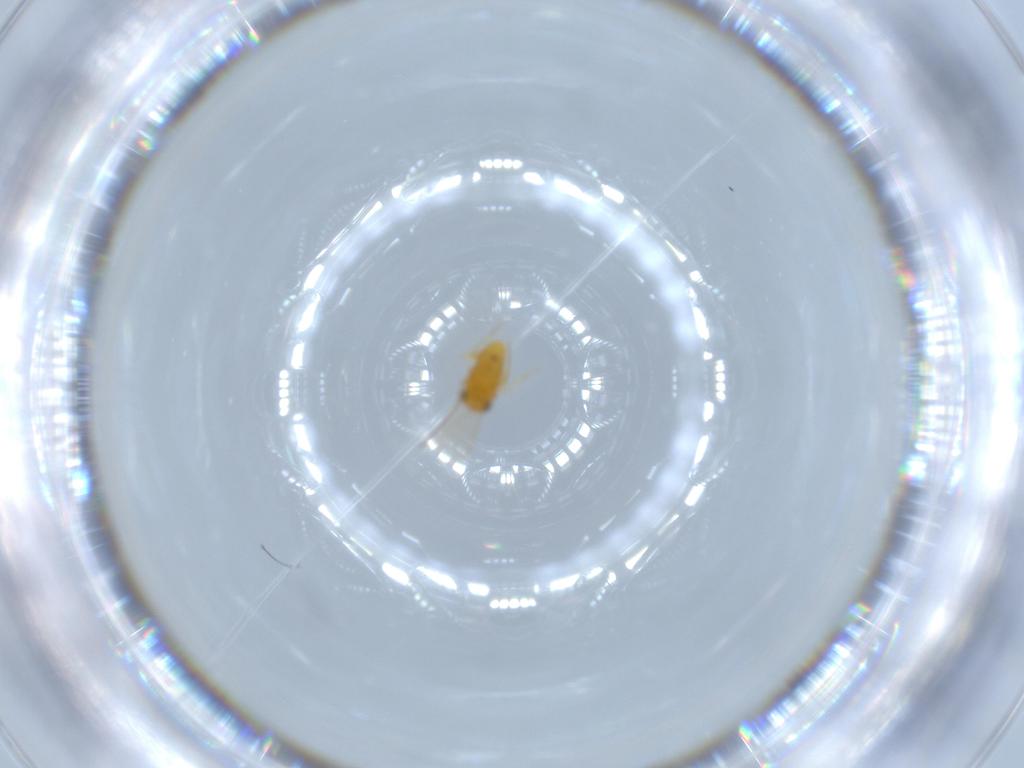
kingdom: Animalia
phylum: Arthropoda
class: Insecta
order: Hymenoptera
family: Aphelinidae
